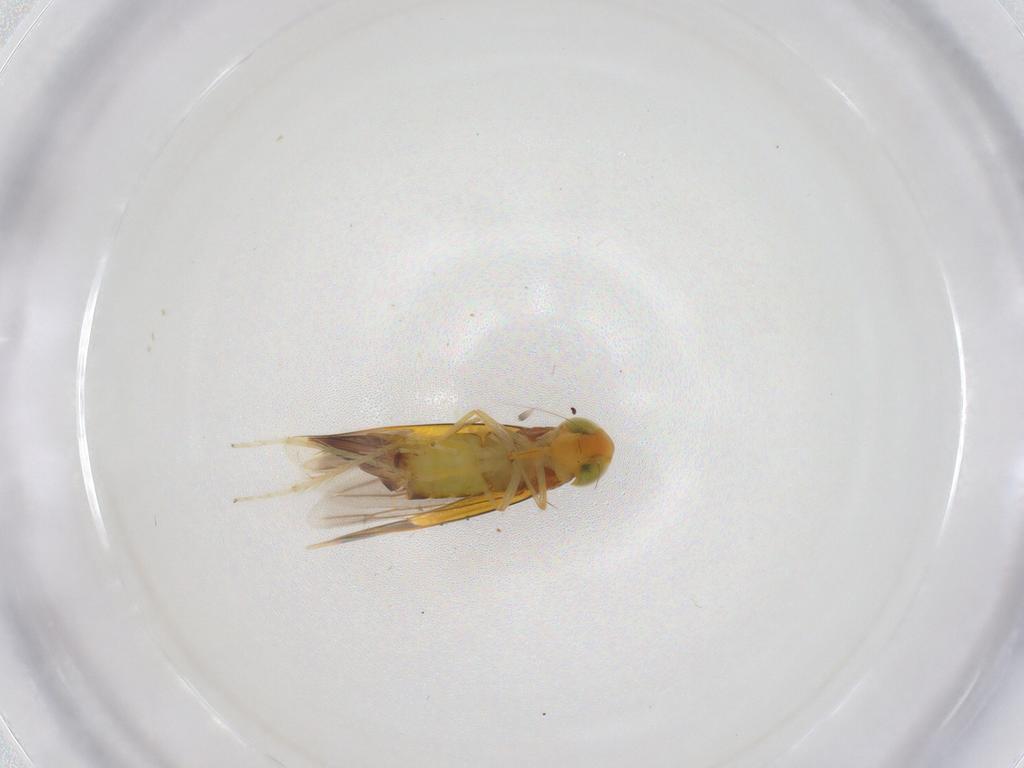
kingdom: Animalia
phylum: Arthropoda
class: Insecta
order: Hemiptera
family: Cicadellidae
